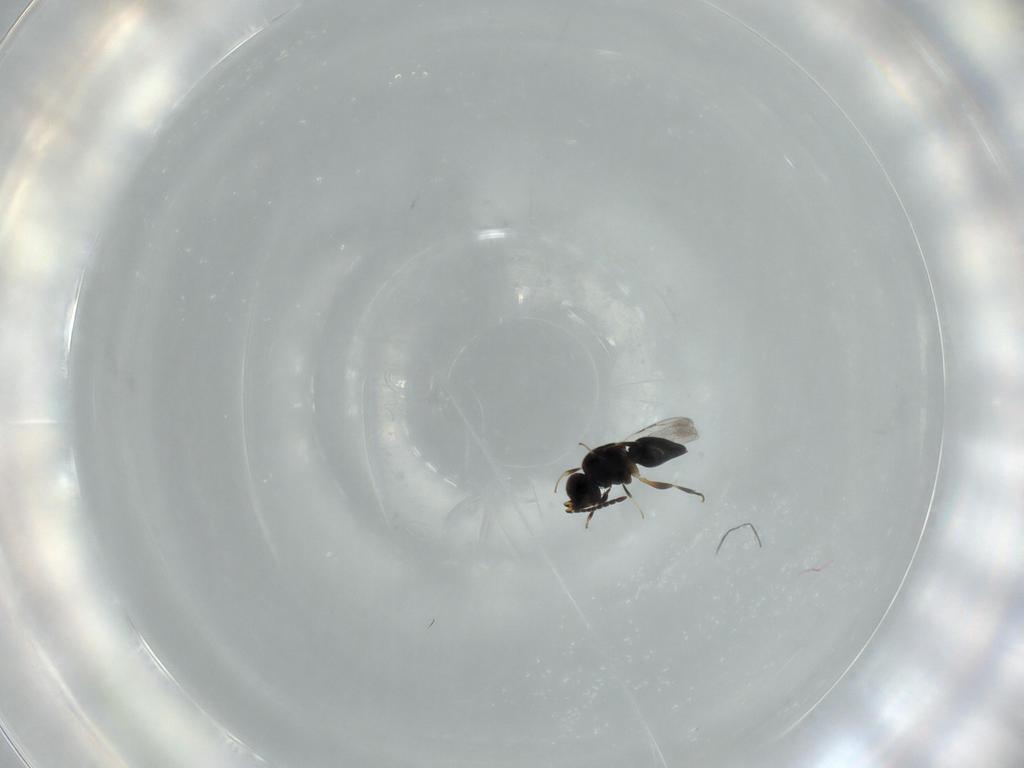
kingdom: Animalia
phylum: Arthropoda
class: Insecta
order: Hymenoptera
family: Ceraphronidae
